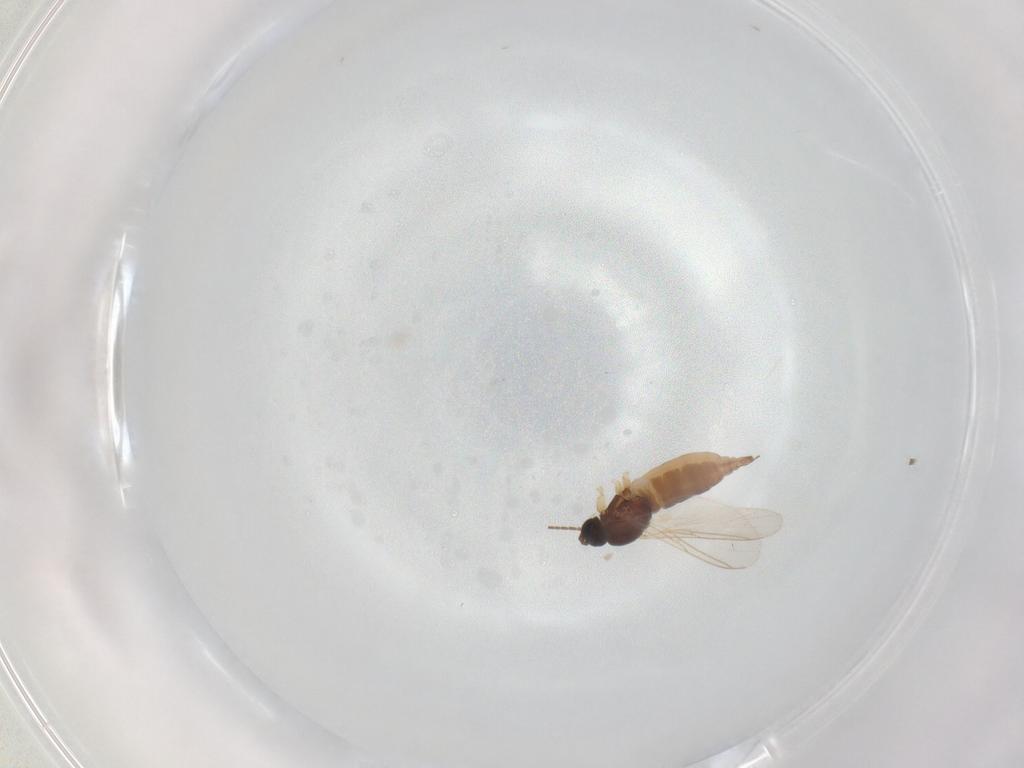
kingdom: Animalia
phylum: Arthropoda
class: Insecta
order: Diptera
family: Sciaridae
